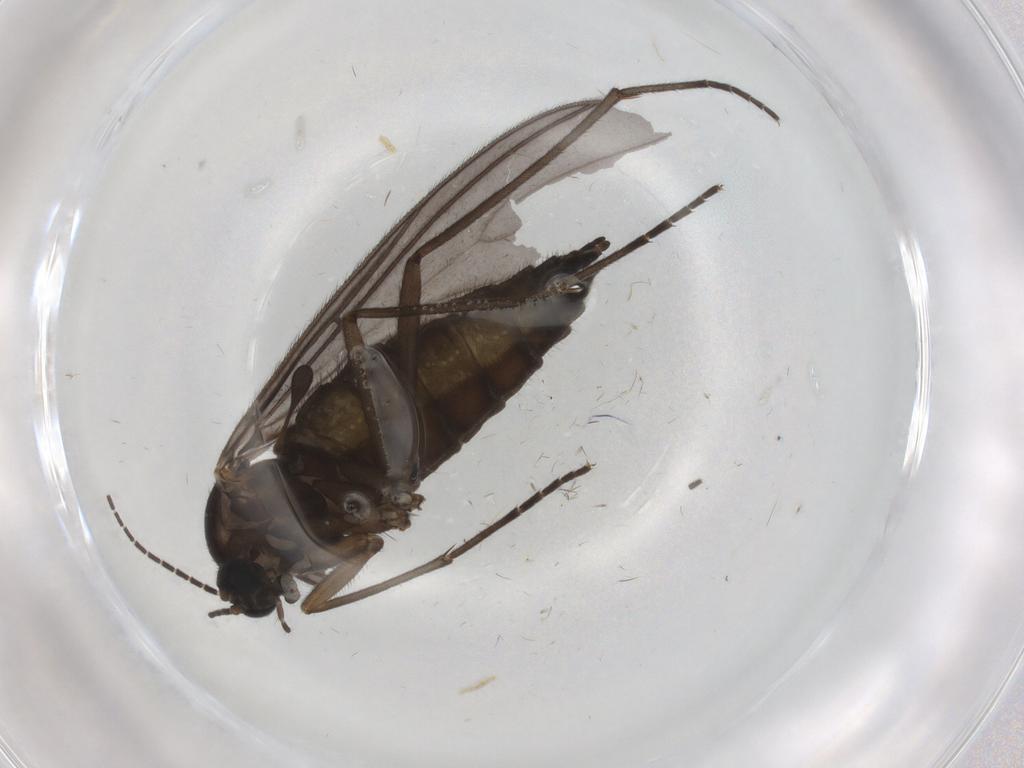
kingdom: Animalia
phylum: Arthropoda
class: Insecta
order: Diptera
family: Sciaridae
